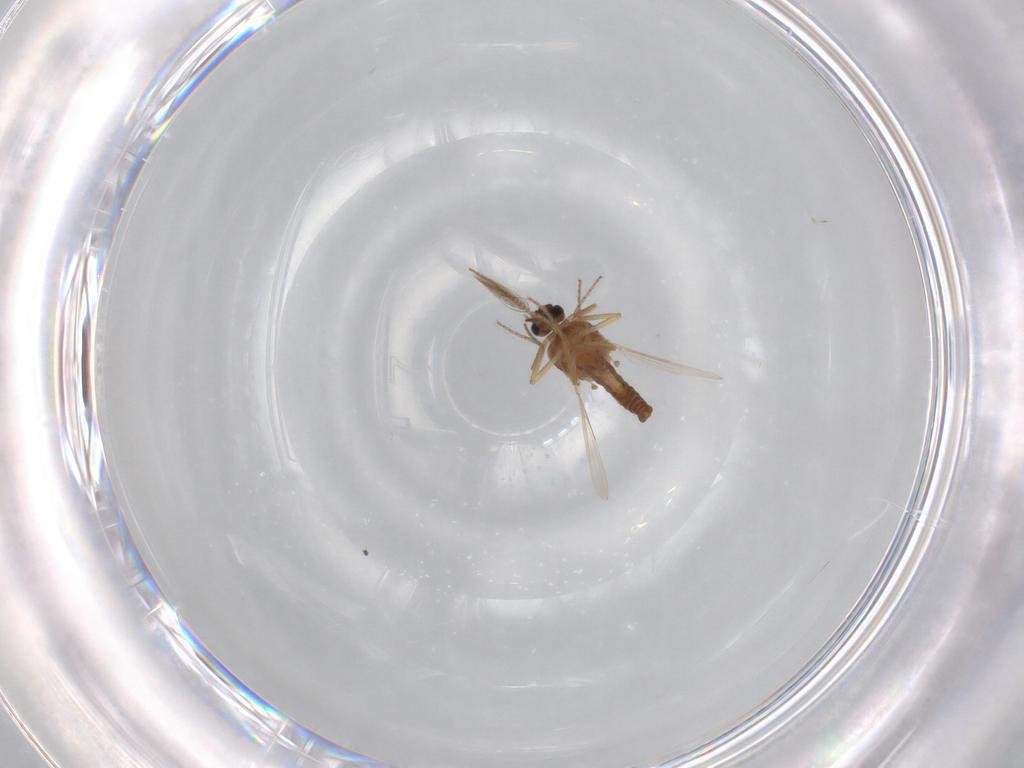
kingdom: Animalia
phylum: Arthropoda
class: Insecta
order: Diptera
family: Ceratopogonidae
